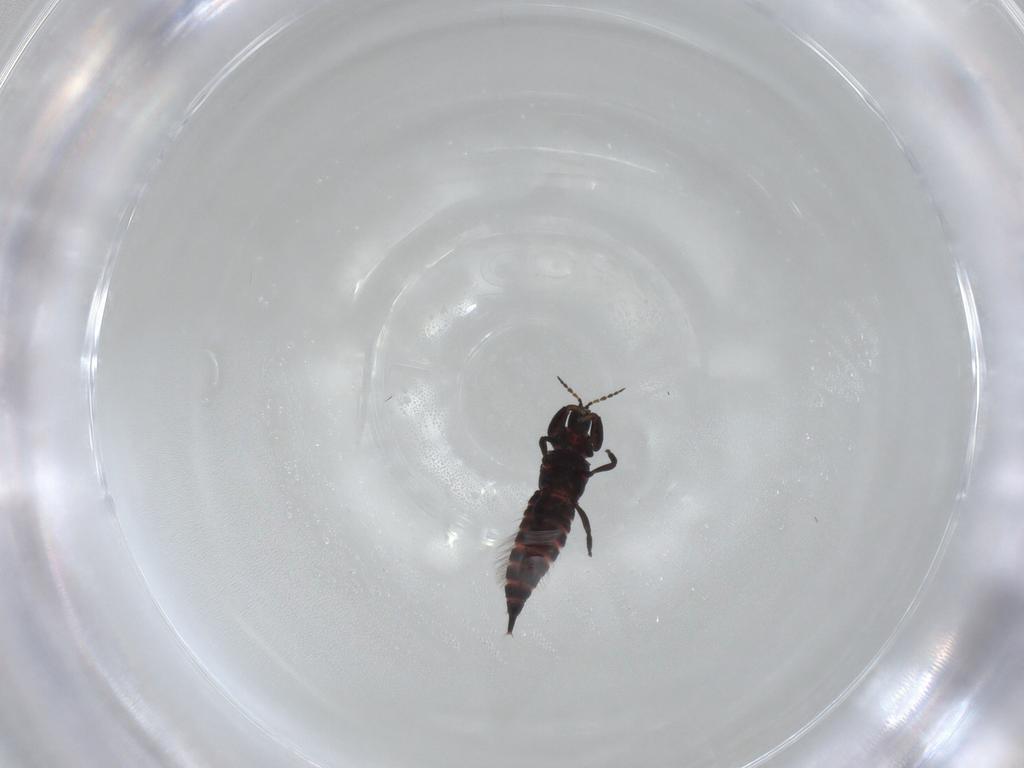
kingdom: Animalia
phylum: Arthropoda
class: Insecta
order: Thysanoptera
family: Phlaeothripidae
